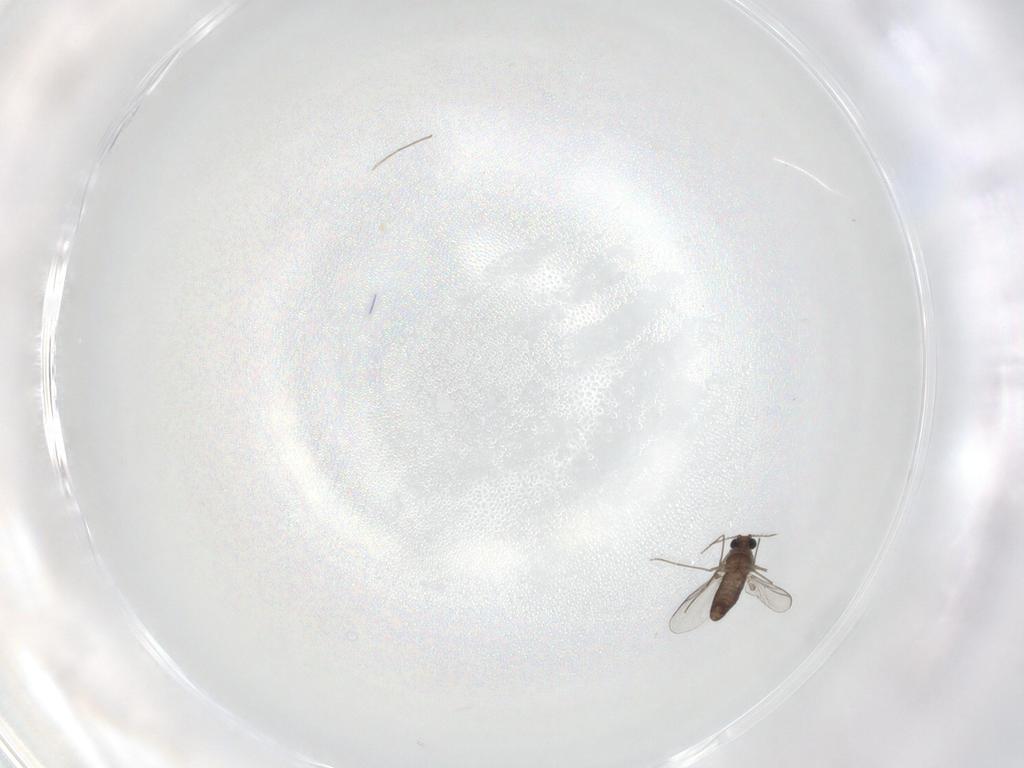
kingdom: Animalia
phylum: Arthropoda
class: Insecta
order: Diptera
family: Chironomidae
